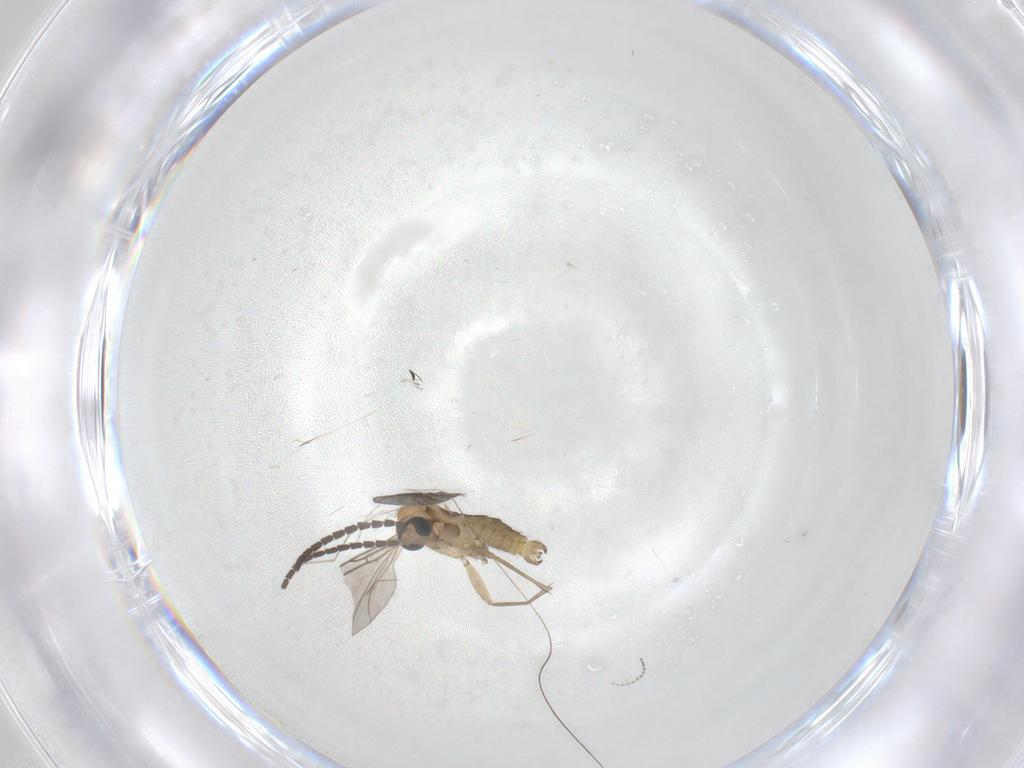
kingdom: Animalia
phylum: Arthropoda
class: Insecta
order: Diptera
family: Sciaridae
